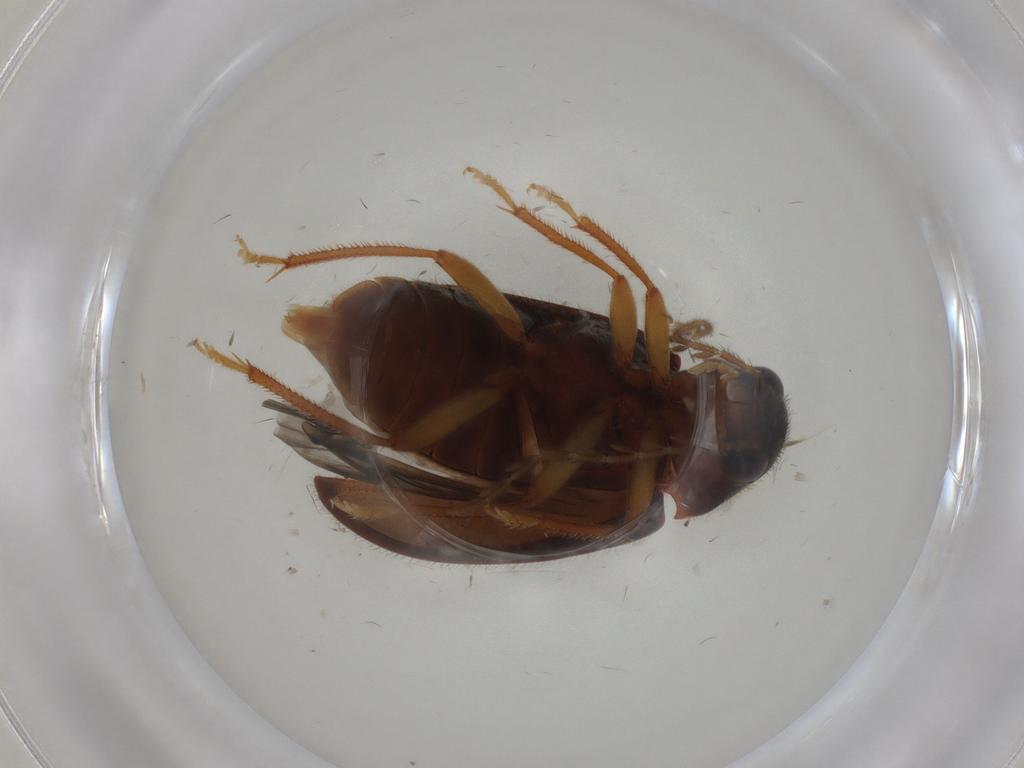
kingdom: Animalia
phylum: Arthropoda
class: Insecta
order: Coleoptera
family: Ptilodactylidae
